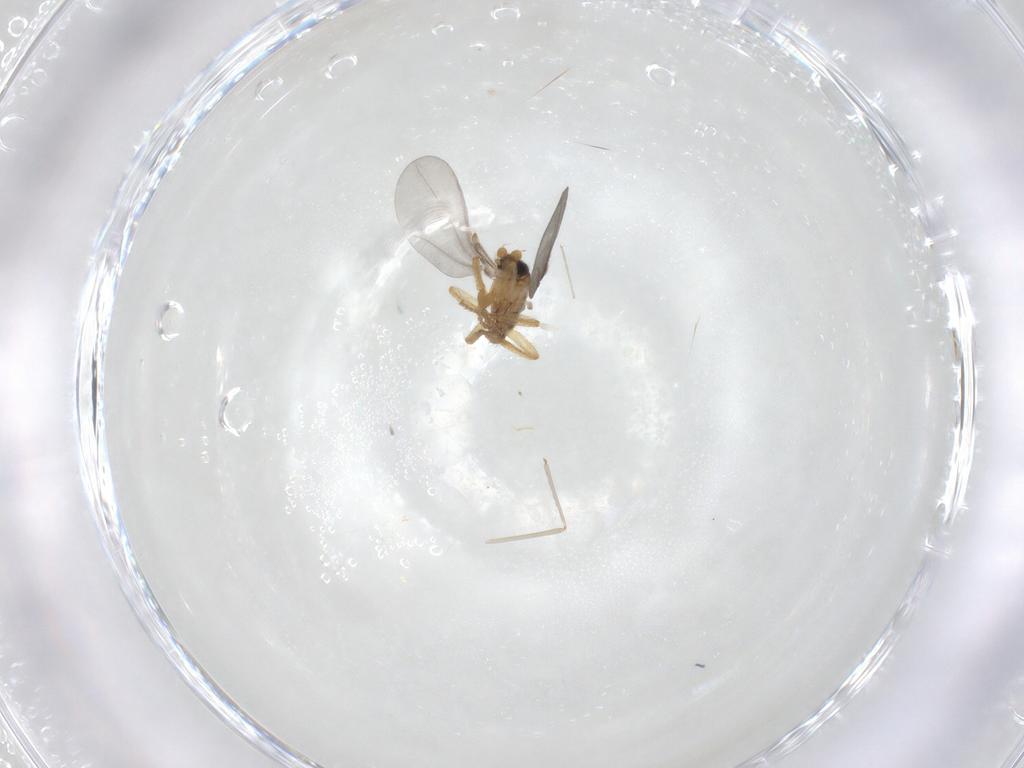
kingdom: Animalia
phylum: Arthropoda
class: Insecta
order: Diptera
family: Cecidomyiidae
